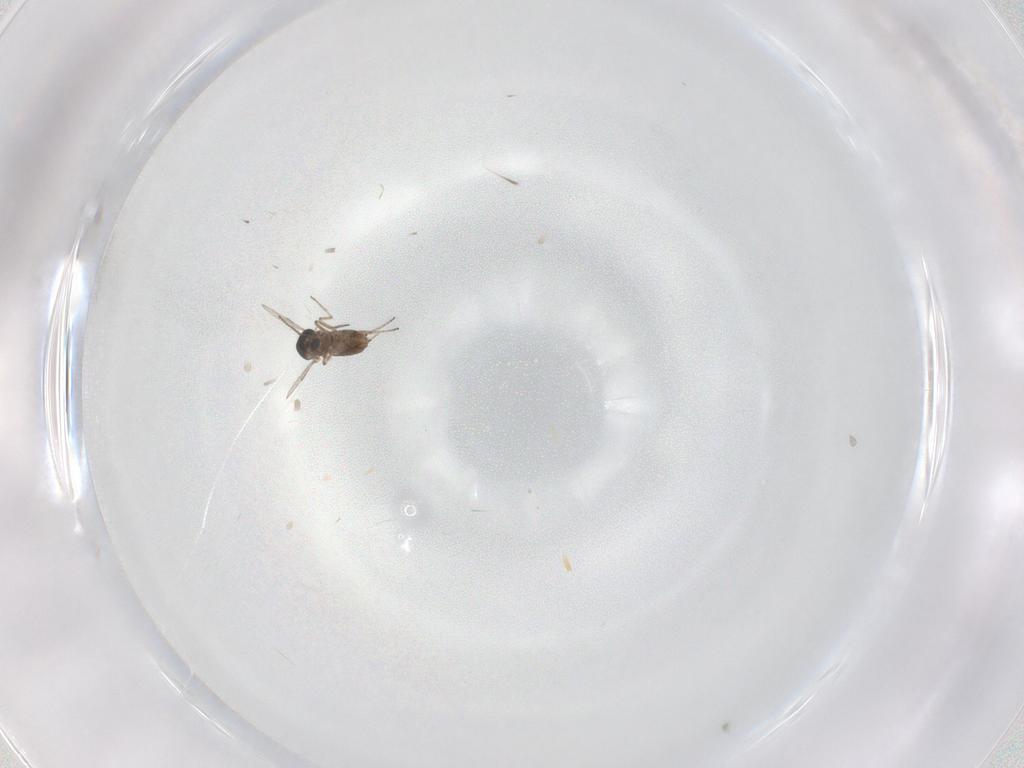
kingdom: Animalia
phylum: Arthropoda
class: Insecta
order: Diptera
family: Ceratopogonidae
